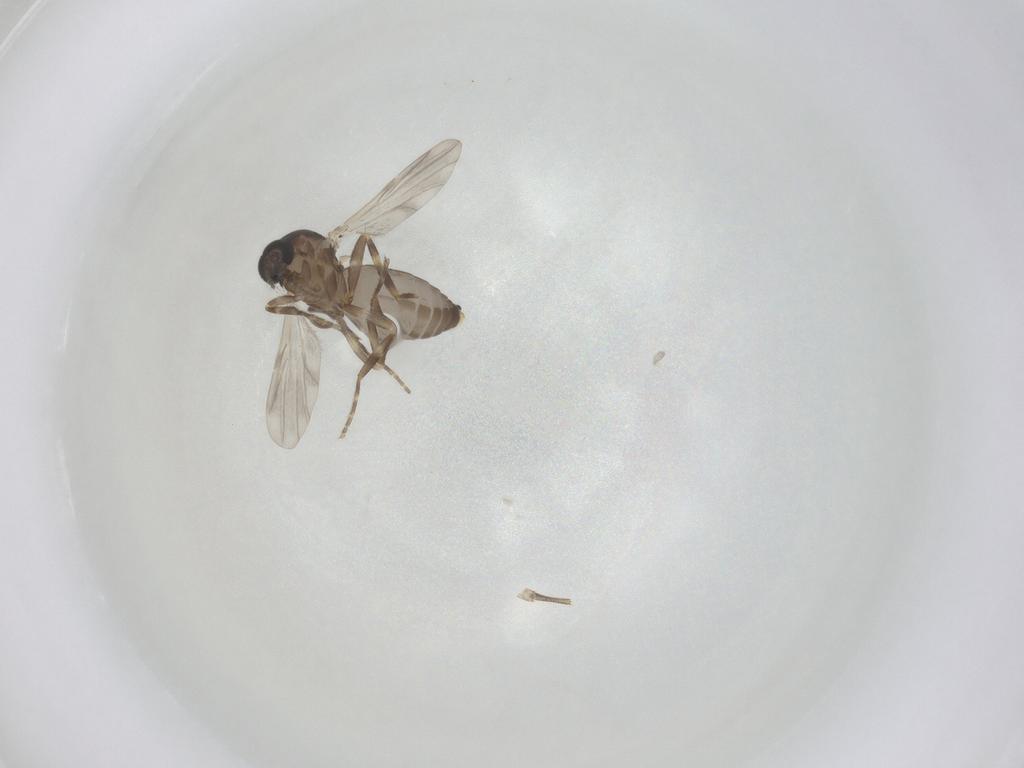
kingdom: Animalia
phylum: Arthropoda
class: Insecta
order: Diptera
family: Ceratopogonidae
